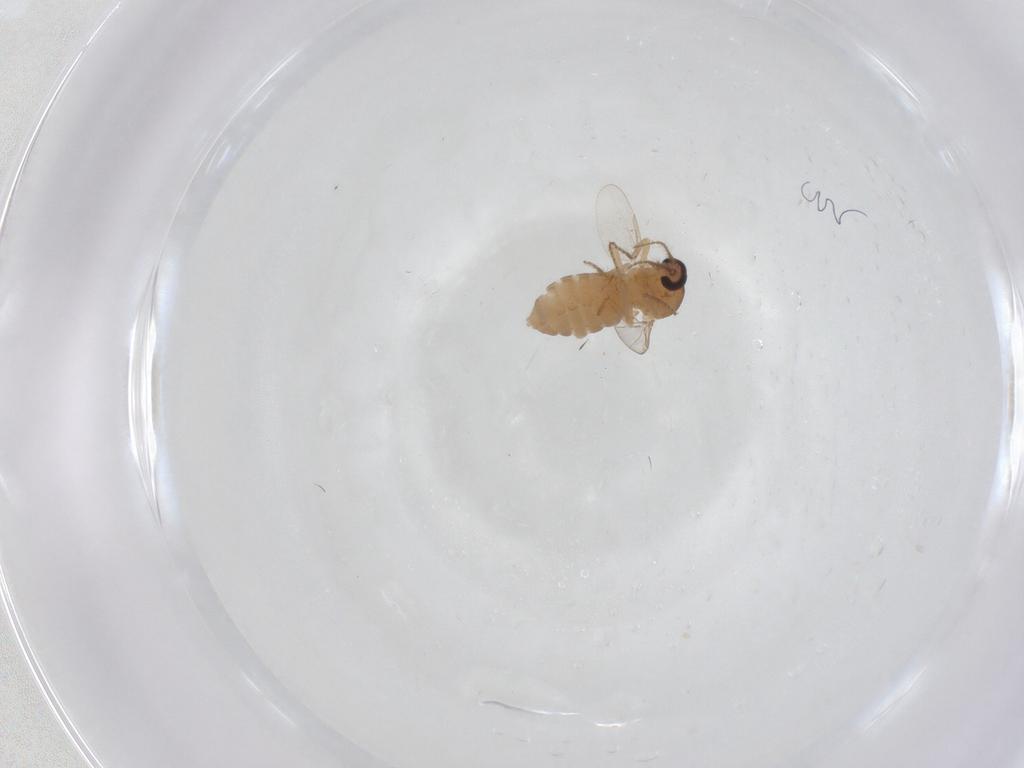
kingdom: Animalia
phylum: Arthropoda
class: Insecta
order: Diptera
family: Ceratopogonidae
